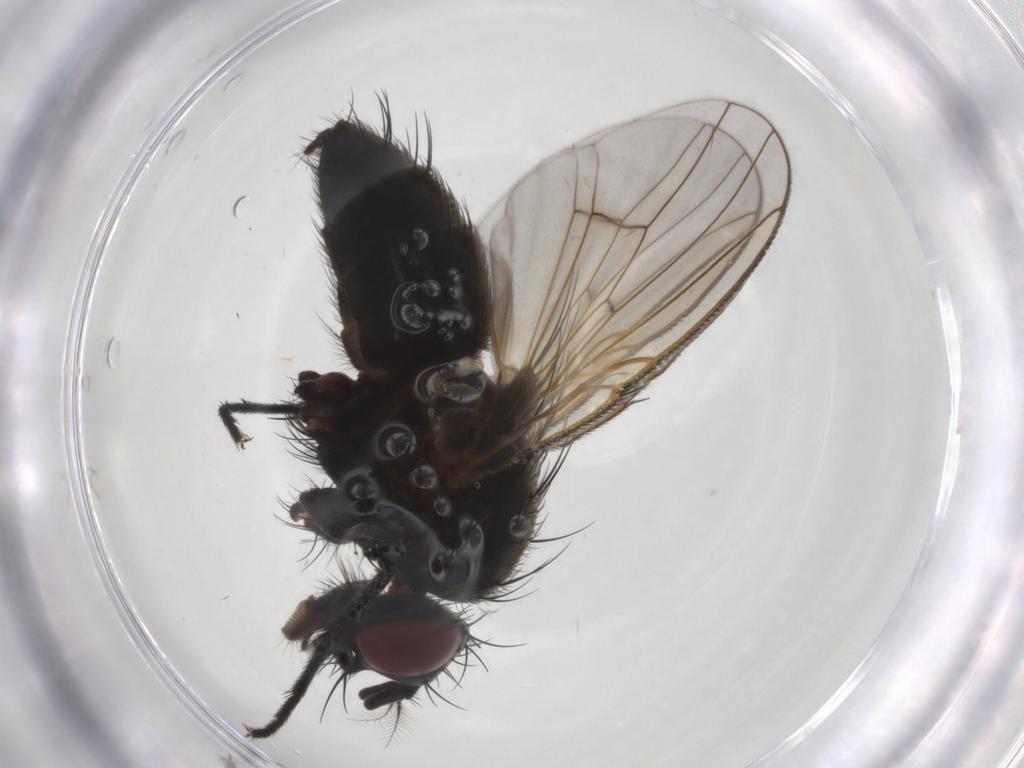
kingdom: Animalia
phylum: Arthropoda
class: Insecta
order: Diptera
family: Muscidae
